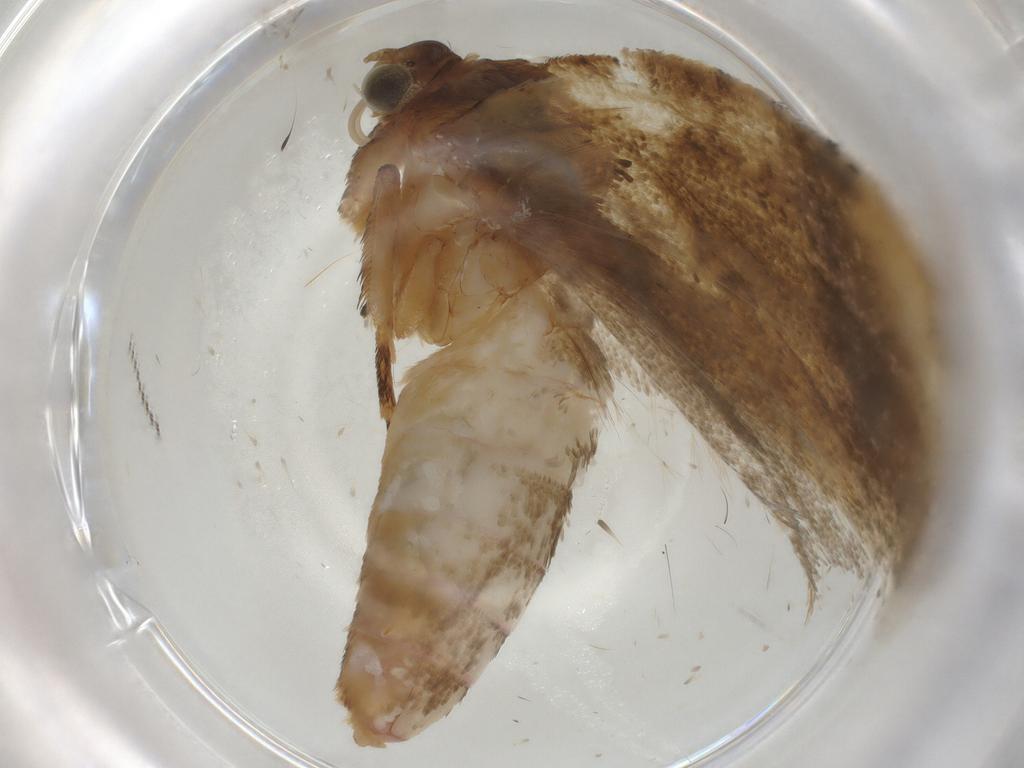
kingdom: Animalia
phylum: Arthropoda
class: Insecta
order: Lepidoptera
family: Tortricidae
